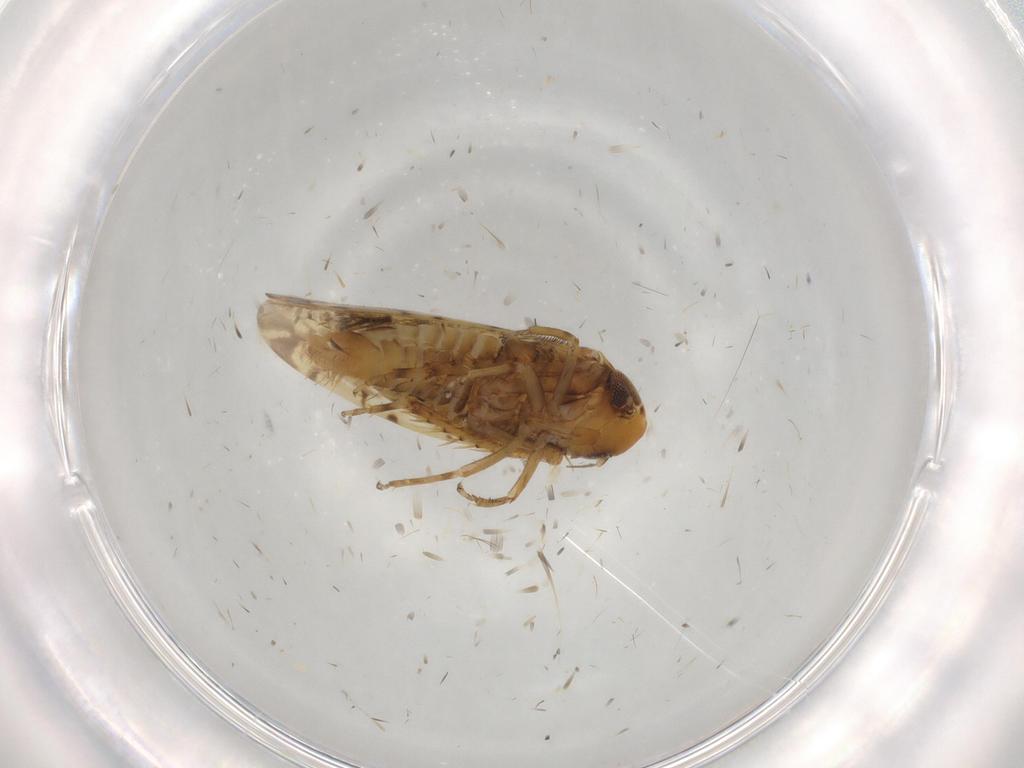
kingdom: Animalia
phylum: Arthropoda
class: Insecta
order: Hemiptera
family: Cicadellidae
